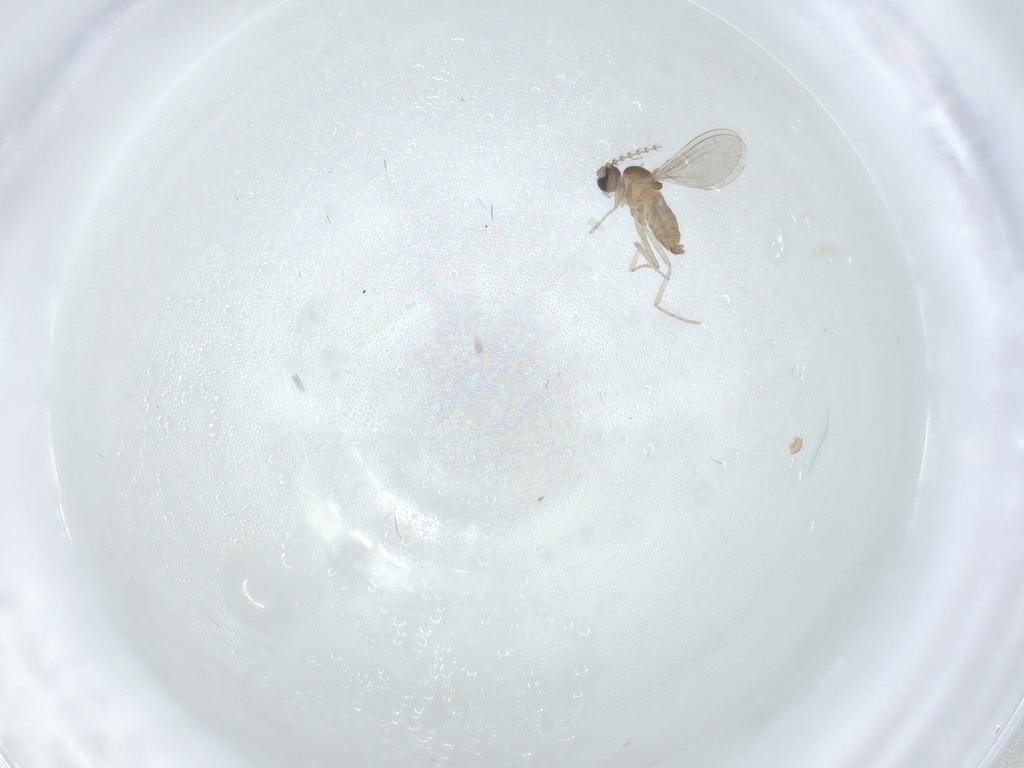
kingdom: Animalia
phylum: Arthropoda
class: Insecta
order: Diptera
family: Cecidomyiidae
